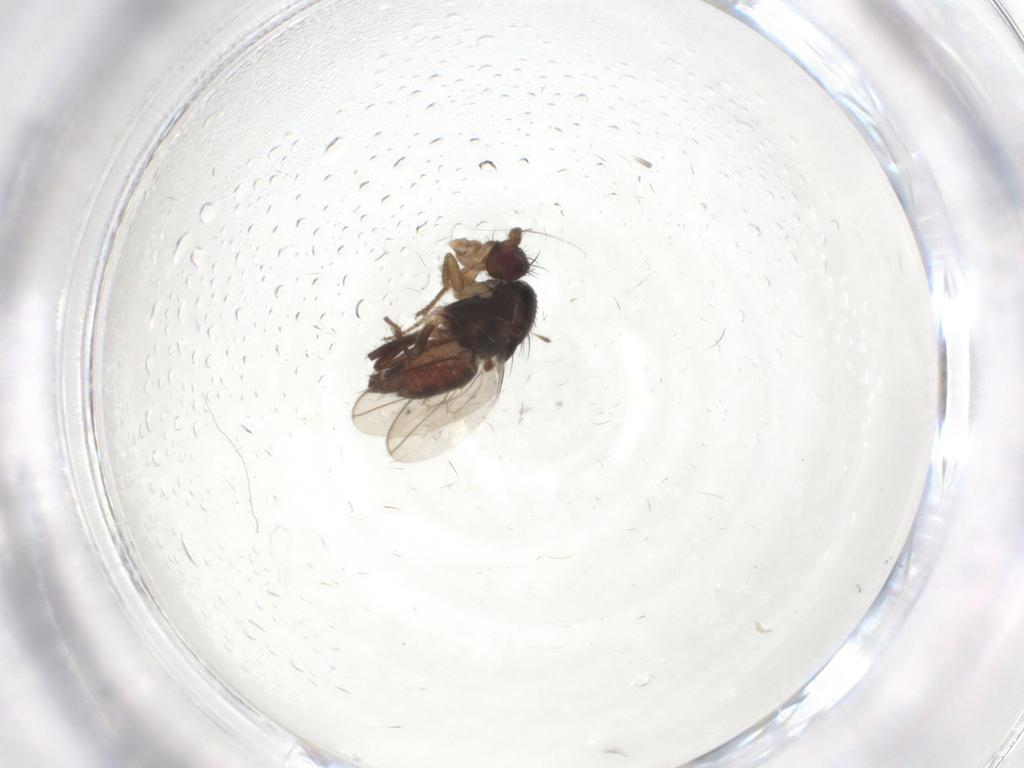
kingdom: Animalia
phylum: Arthropoda
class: Insecta
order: Diptera
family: Sphaeroceridae
